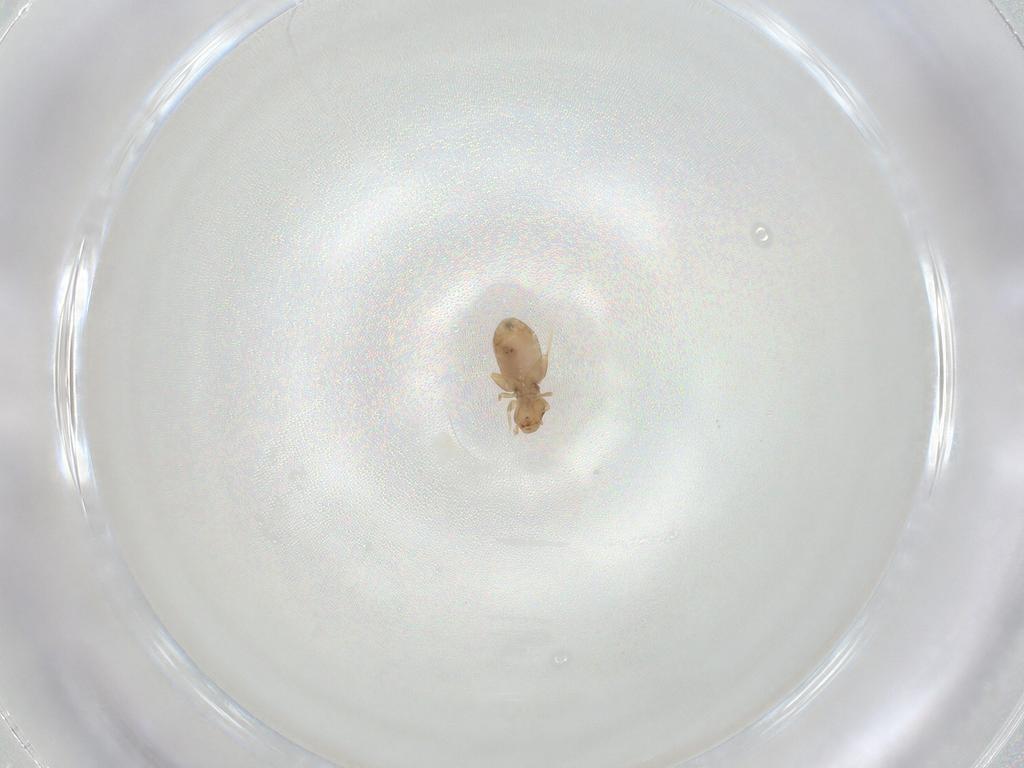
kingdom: Animalia
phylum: Arthropoda
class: Insecta
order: Psocodea
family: Liposcelididae
